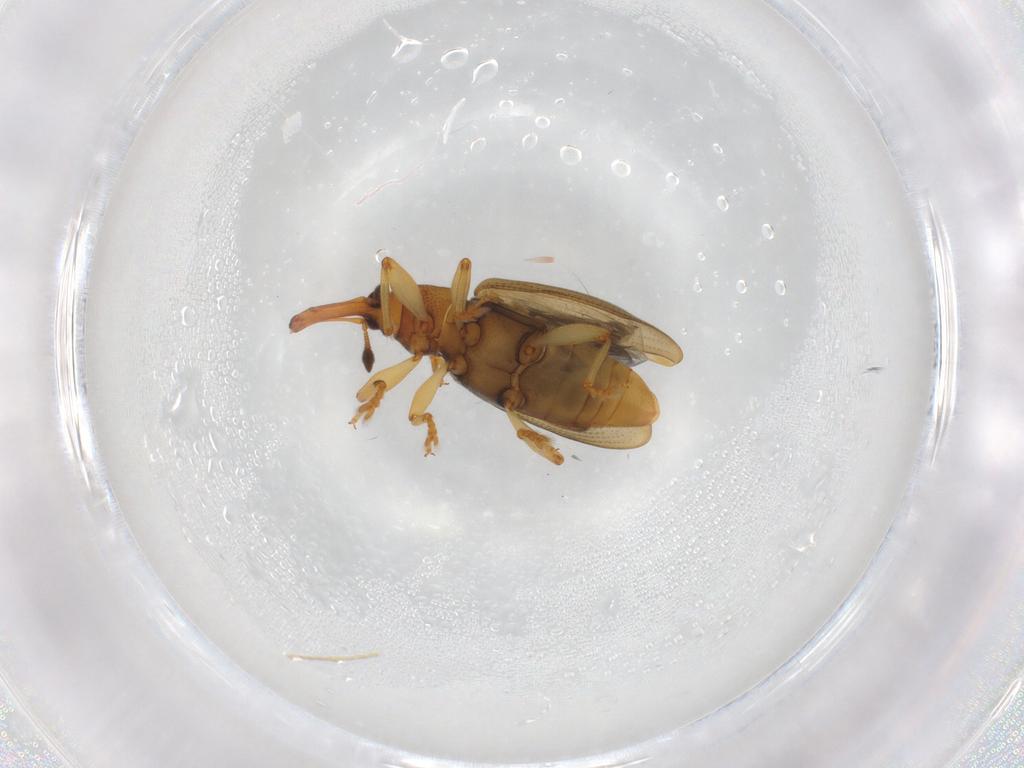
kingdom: Animalia
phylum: Arthropoda
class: Insecta
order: Coleoptera
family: Curculionidae
